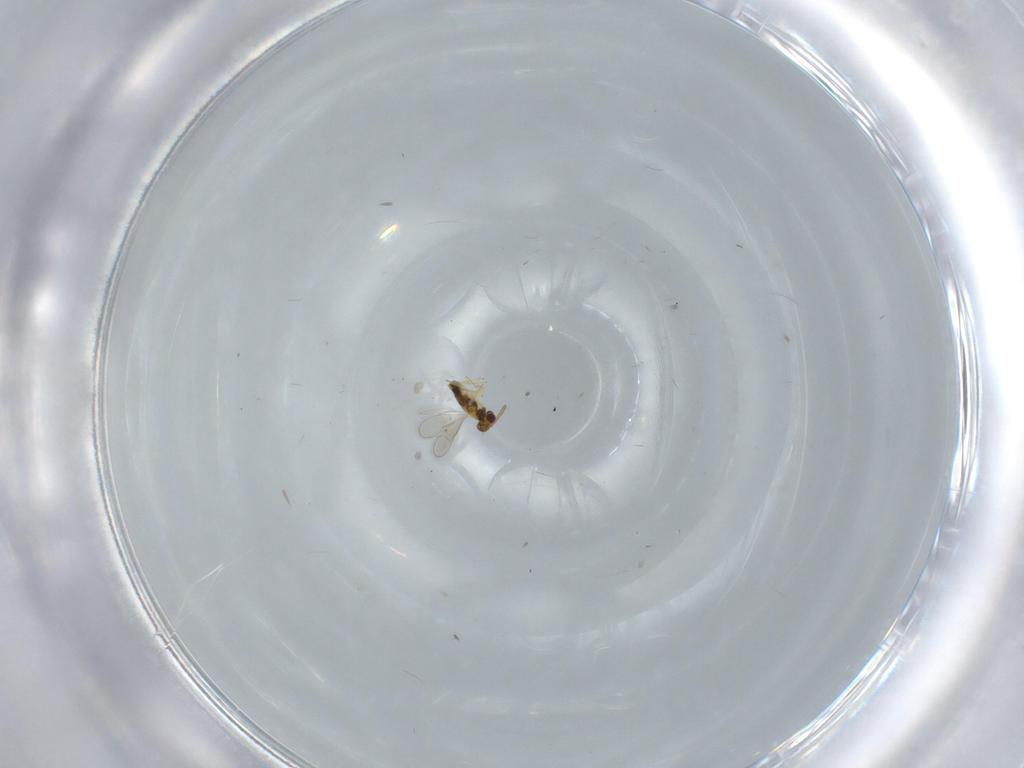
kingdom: Animalia
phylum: Arthropoda
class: Insecta
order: Hymenoptera
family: Aphelinidae
